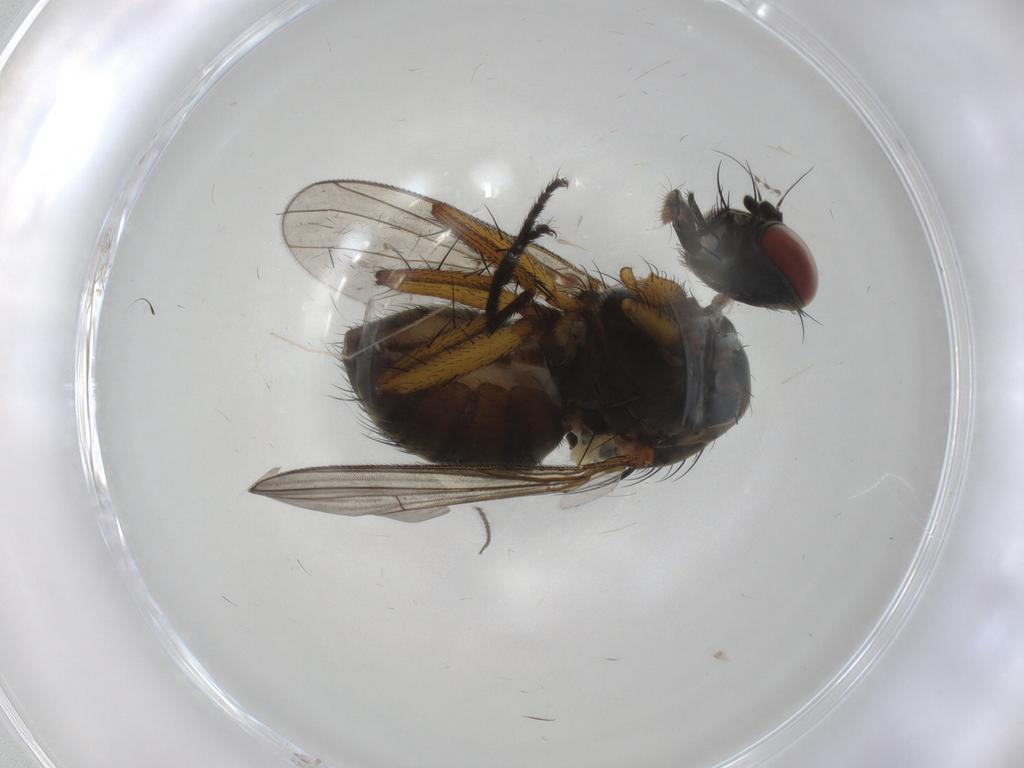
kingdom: Animalia
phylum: Arthropoda
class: Insecta
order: Diptera
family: Muscidae
